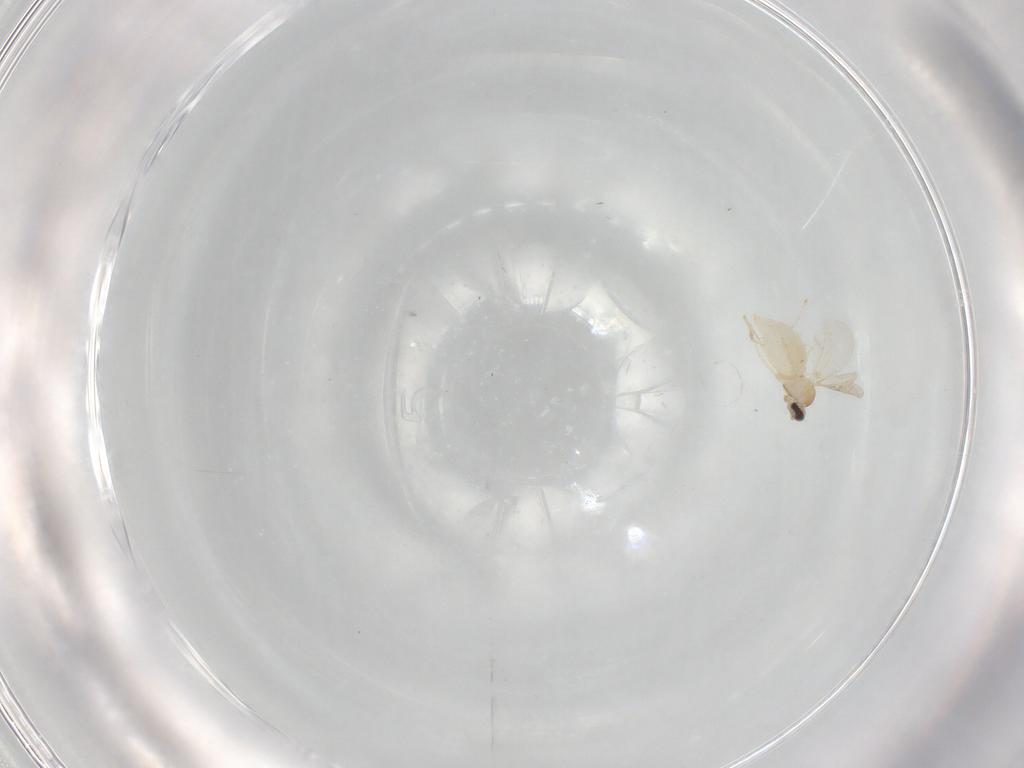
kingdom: Animalia
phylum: Arthropoda
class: Insecta
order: Diptera
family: Cecidomyiidae
